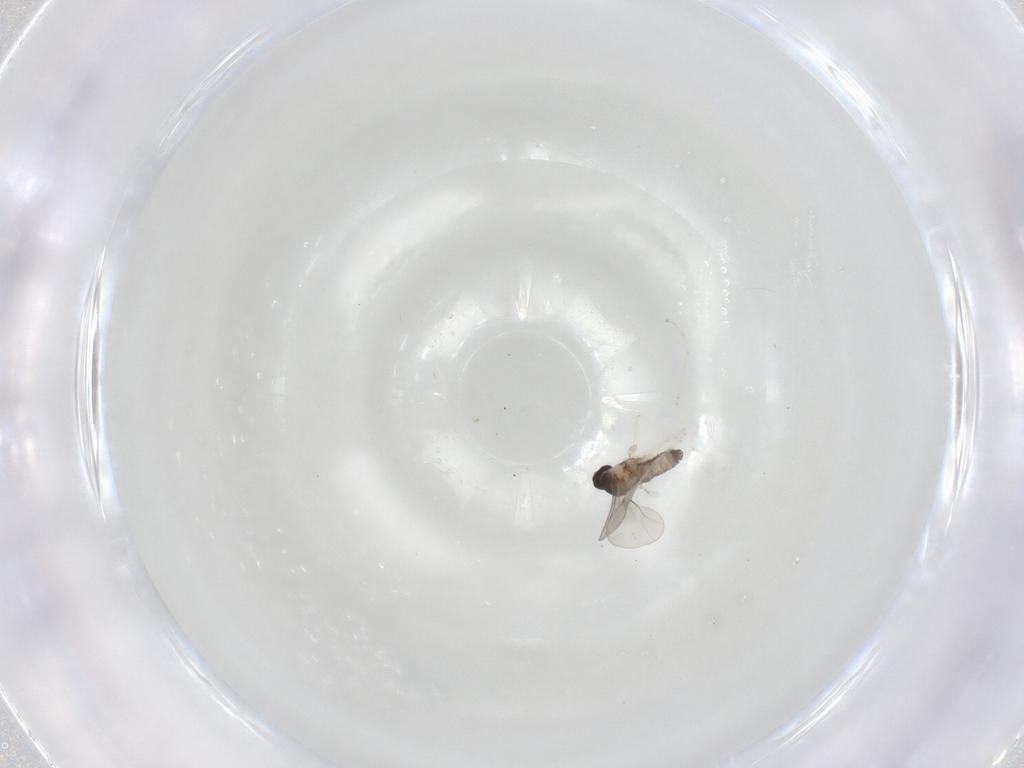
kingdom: Animalia
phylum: Arthropoda
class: Insecta
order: Diptera
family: Cecidomyiidae
